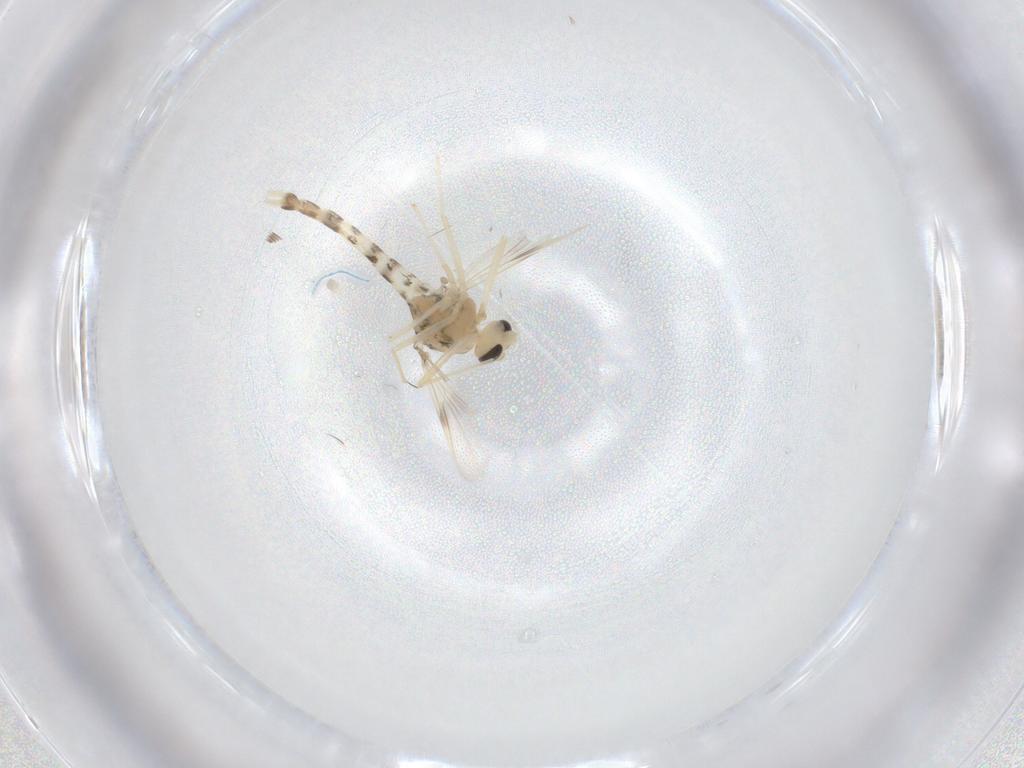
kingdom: Animalia
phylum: Arthropoda
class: Insecta
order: Diptera
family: Chironomidae
